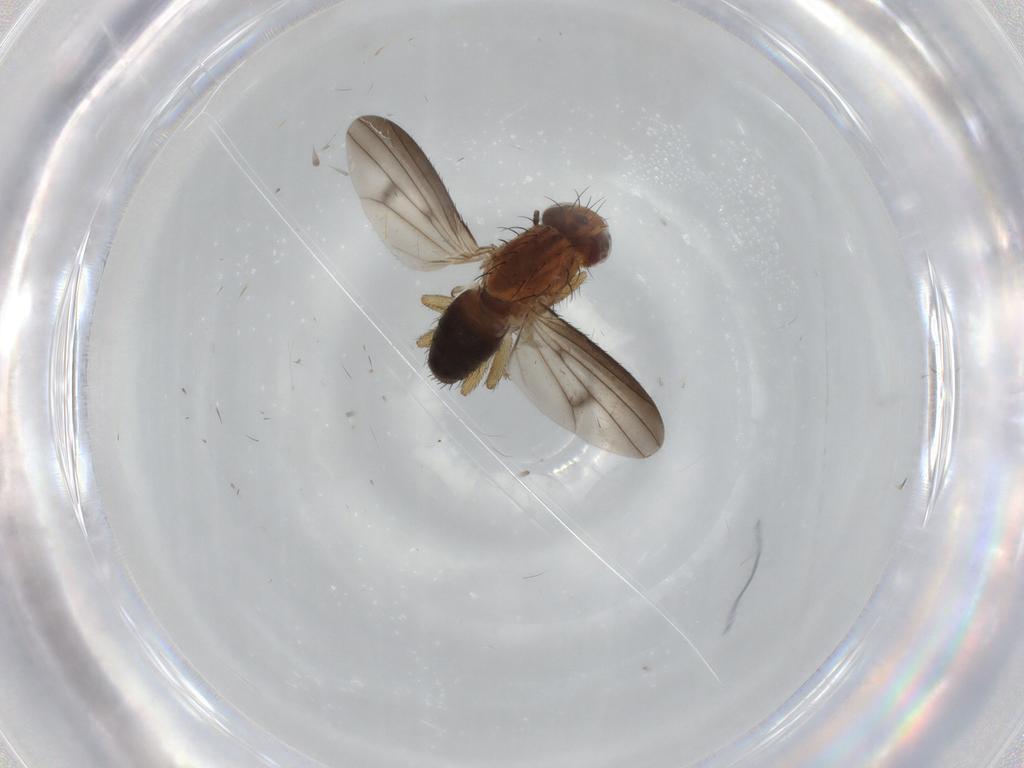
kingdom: Animalia
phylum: Arthropoda
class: Insecta
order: Diptera
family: Heleomyzidae
